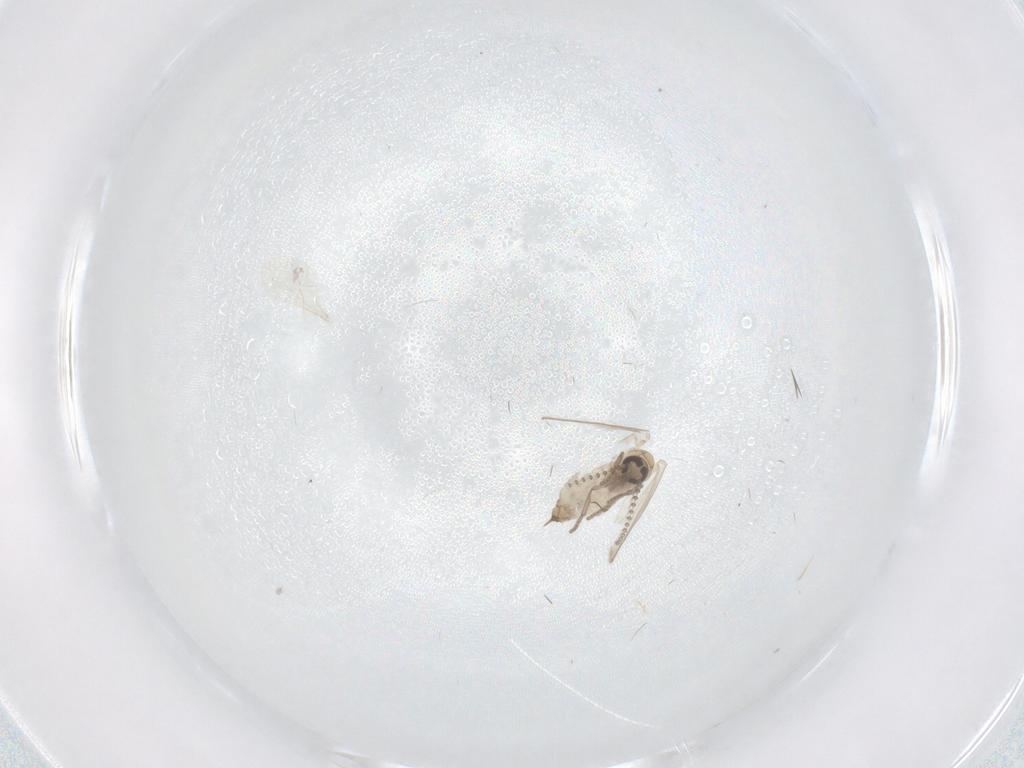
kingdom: Animalia
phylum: Arthropoda
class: Insecta
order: Diptera
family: Psychodidae
